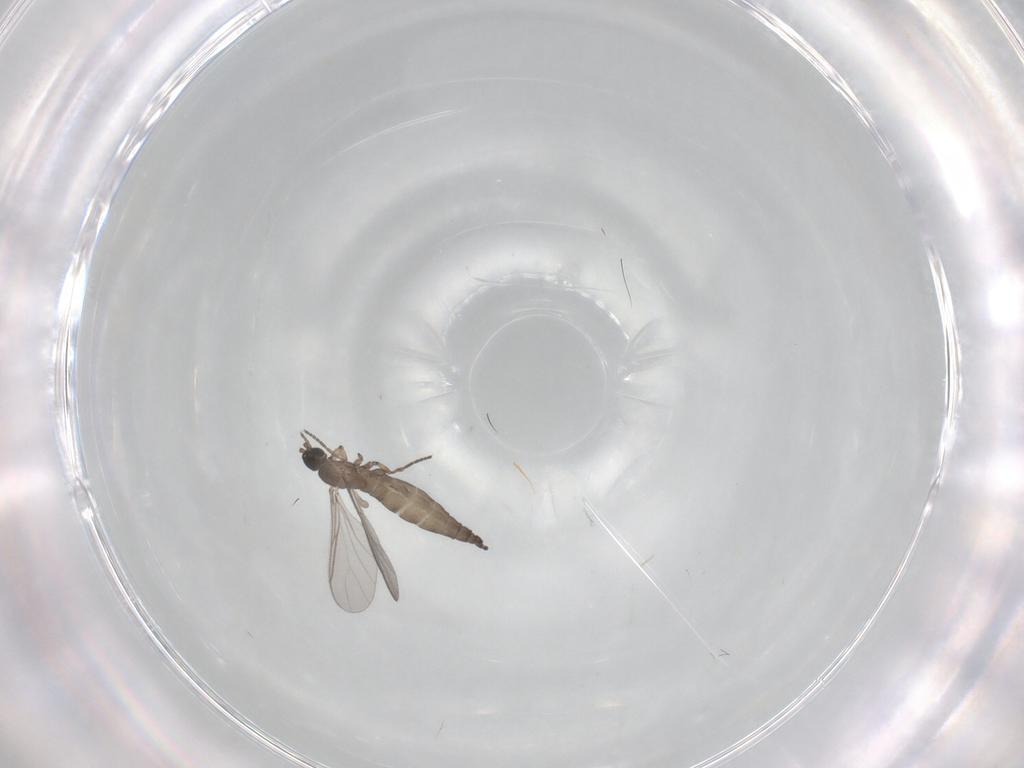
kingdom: Animalia
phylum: Arthropoda
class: Insecta
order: Diptera
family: Sciaridae
